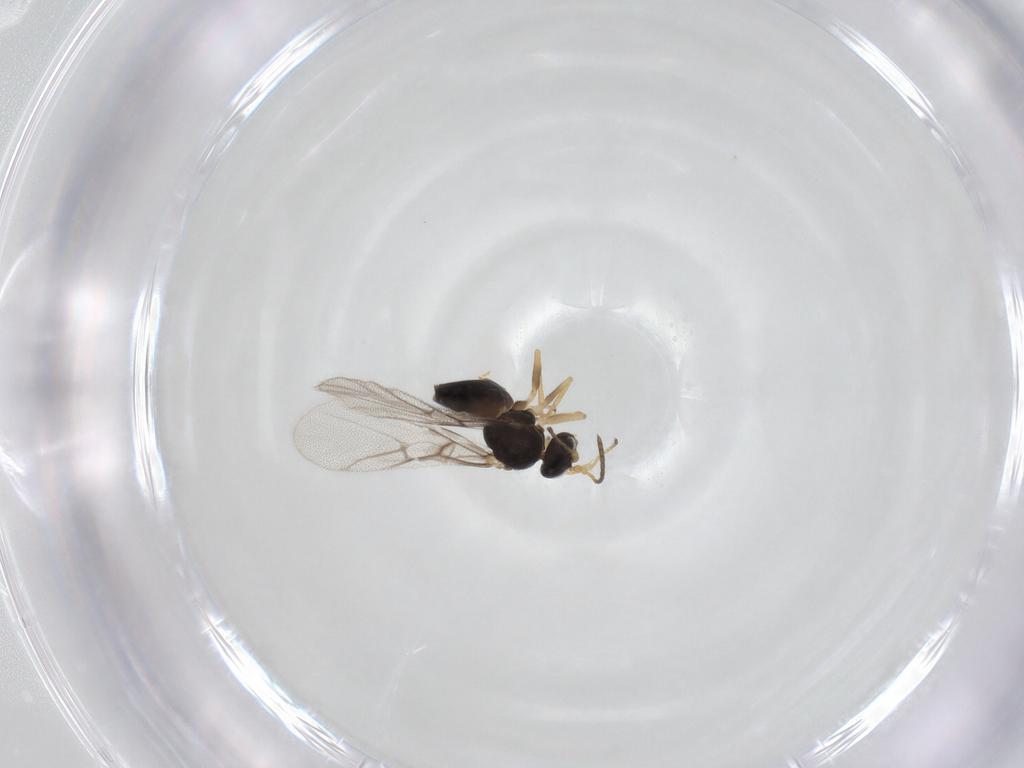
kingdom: Animalia
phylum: Arthropoda
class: Insecta
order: Hymenoptera
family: Cynipidae
